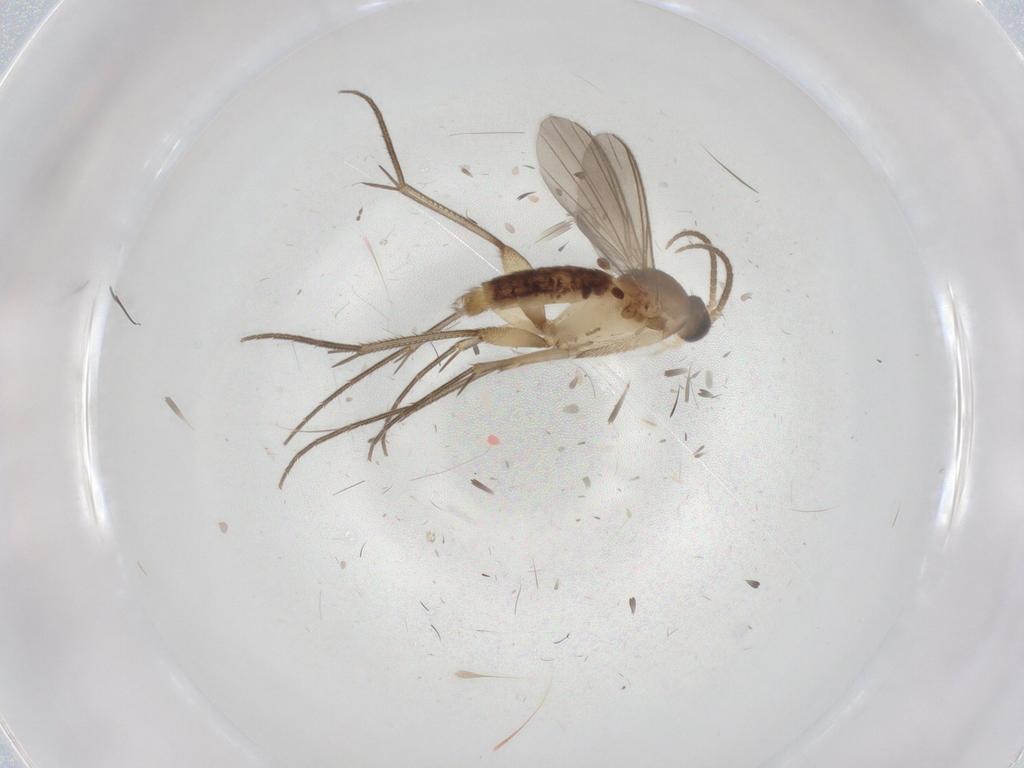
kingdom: Animalia
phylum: Arthropoda
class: Insecta
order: Diptera
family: Mycetophilidae
